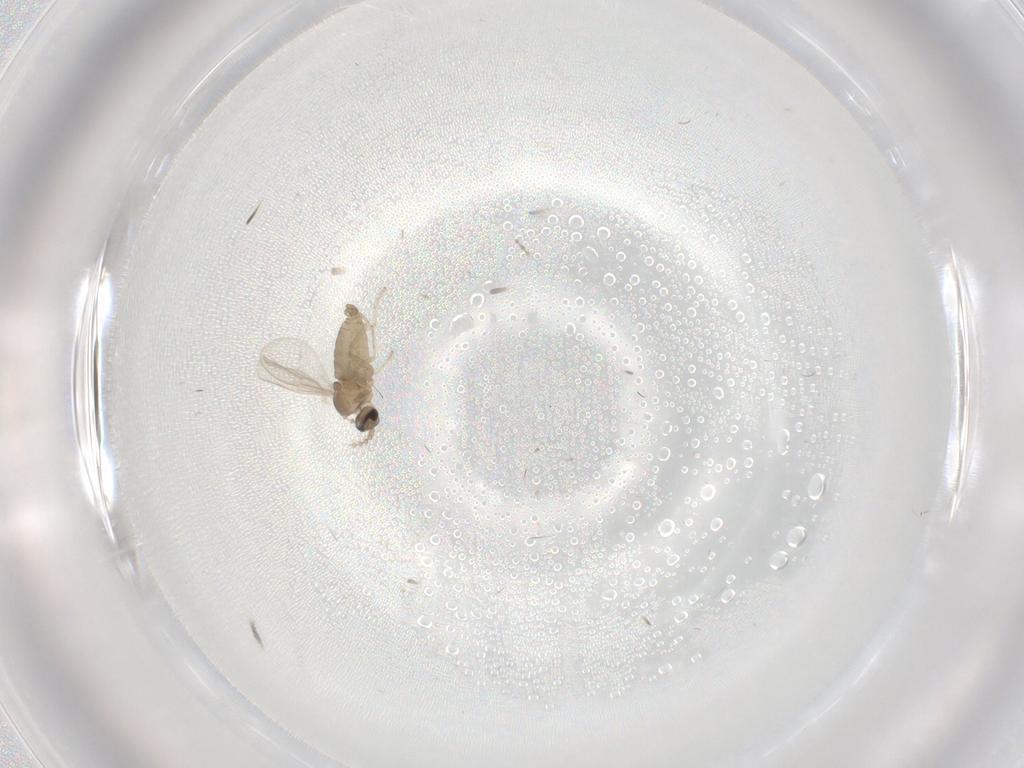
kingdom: Animalia
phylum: Arthropoda
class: Insecta
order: Diptera
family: Cecidomyiidae
